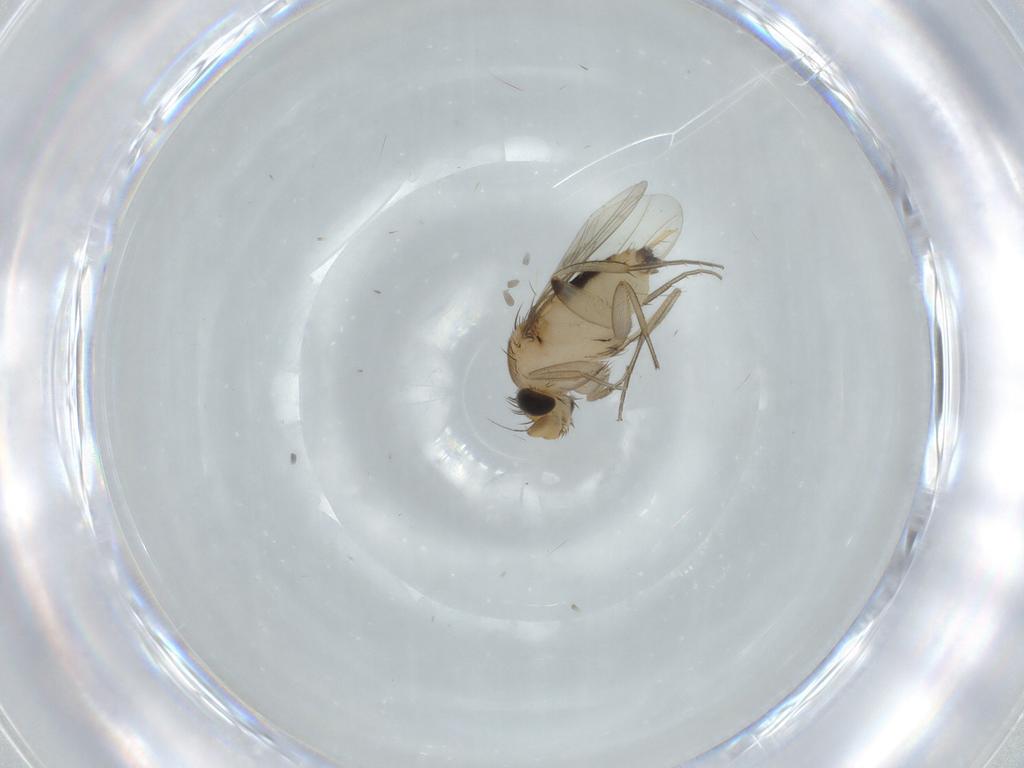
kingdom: Animalia
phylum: Arthropoda
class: Insecta
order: Diptera
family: Phoridae
